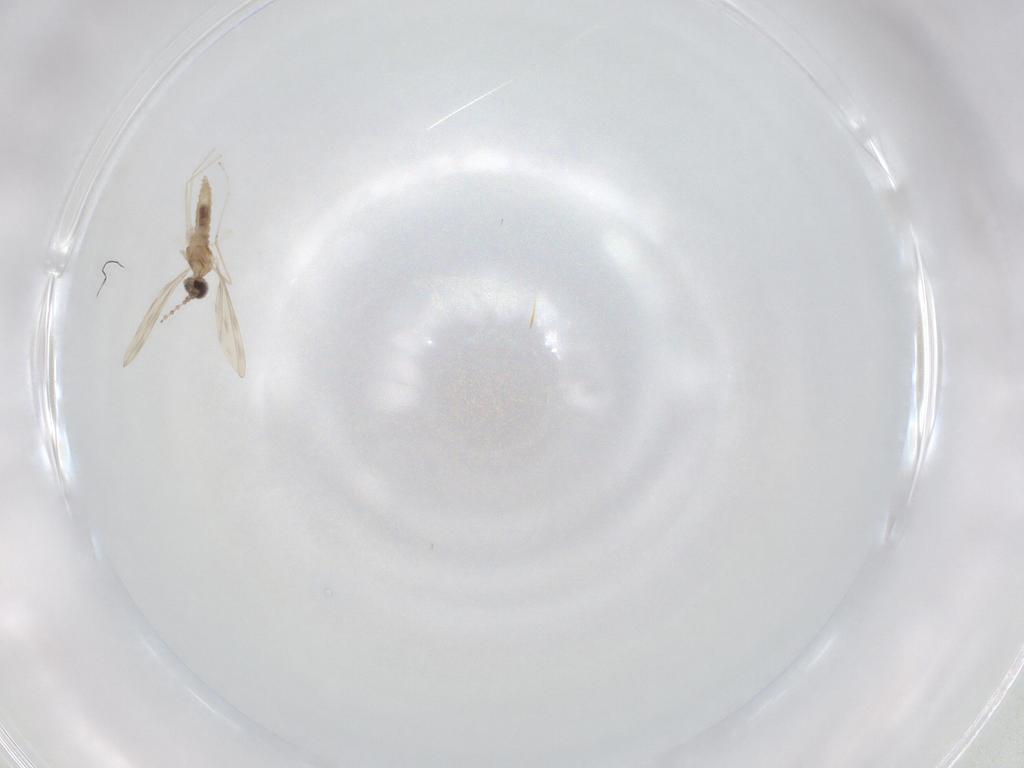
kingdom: Animalia
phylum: Arthropoda
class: Insecta
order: Diptera
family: Cecidomyiidae
